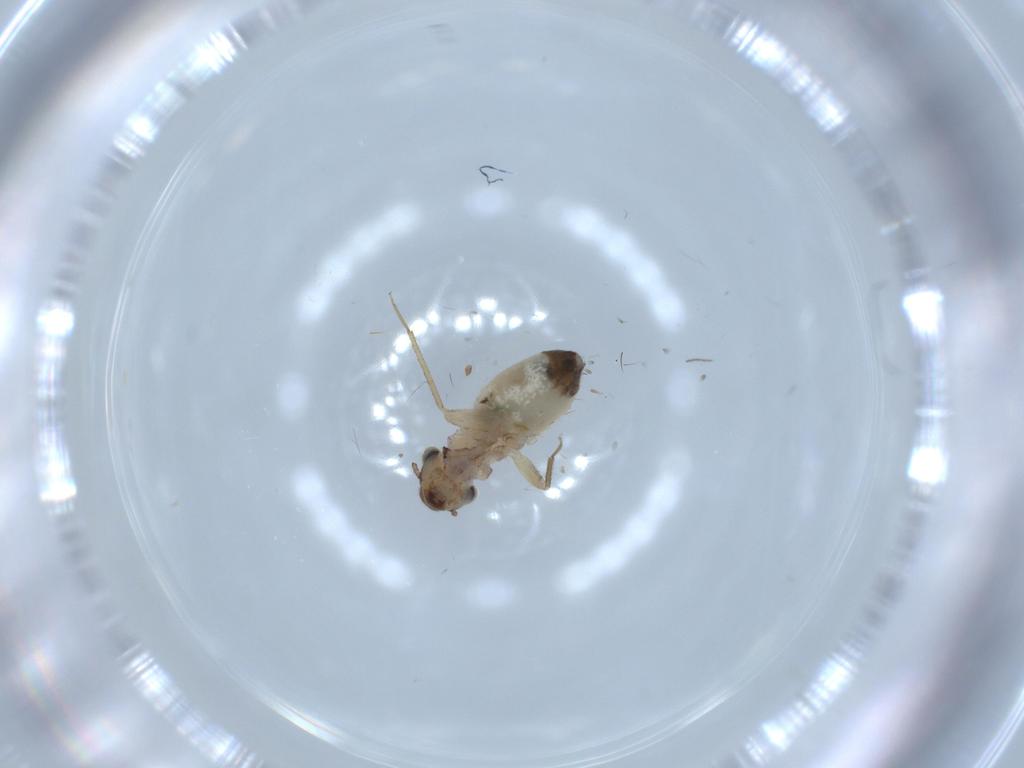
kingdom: Animalia
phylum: Arthropoda
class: Insecta
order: Psocodea
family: Lepidopsocidae
